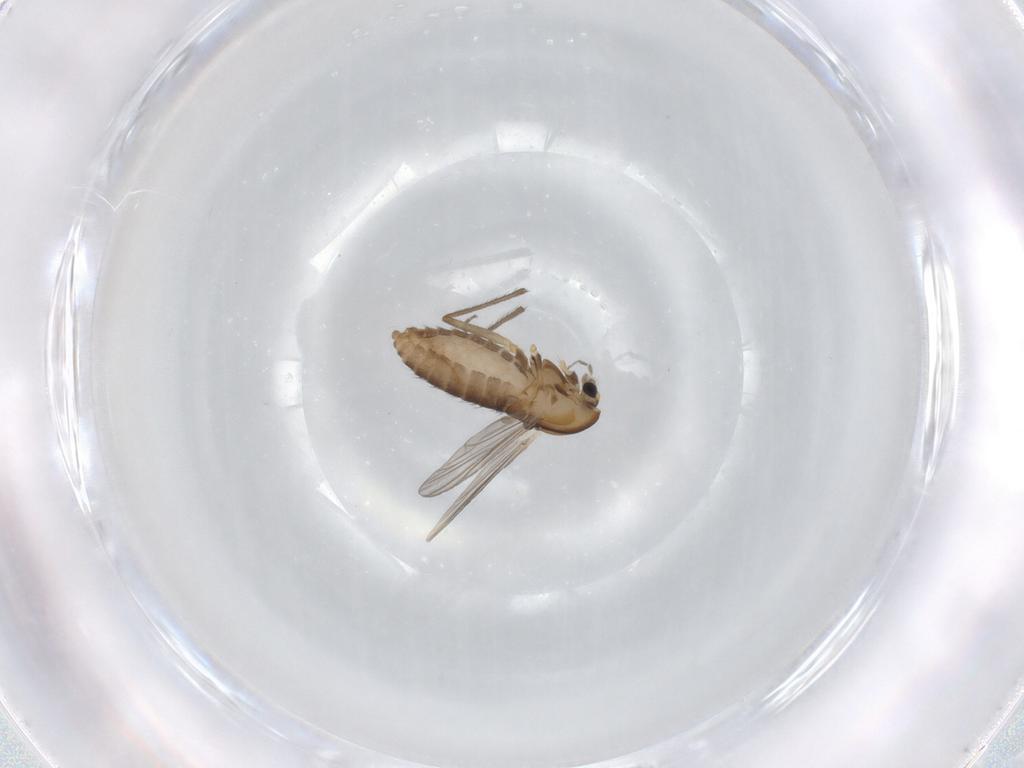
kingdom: Animalia
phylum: Arthropoda
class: Insecta
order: Diptera
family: Chironomidae
